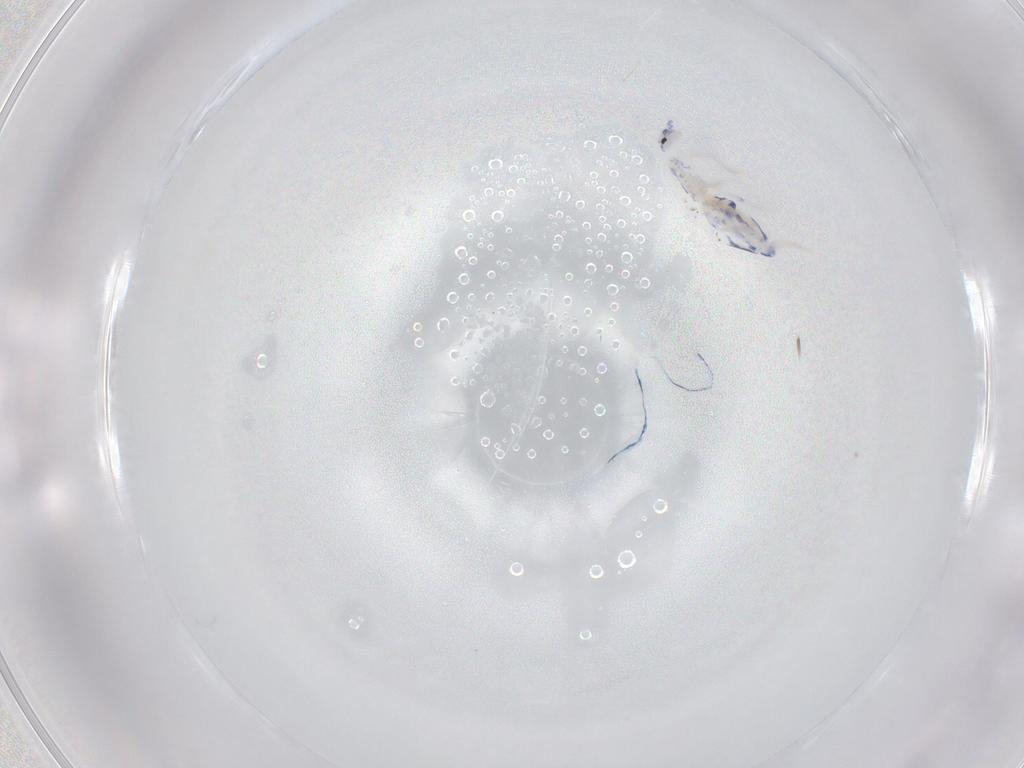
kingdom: Animalia
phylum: Arthropoda
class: Collembola
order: Entomobryomorpha
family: Entomobryidae
